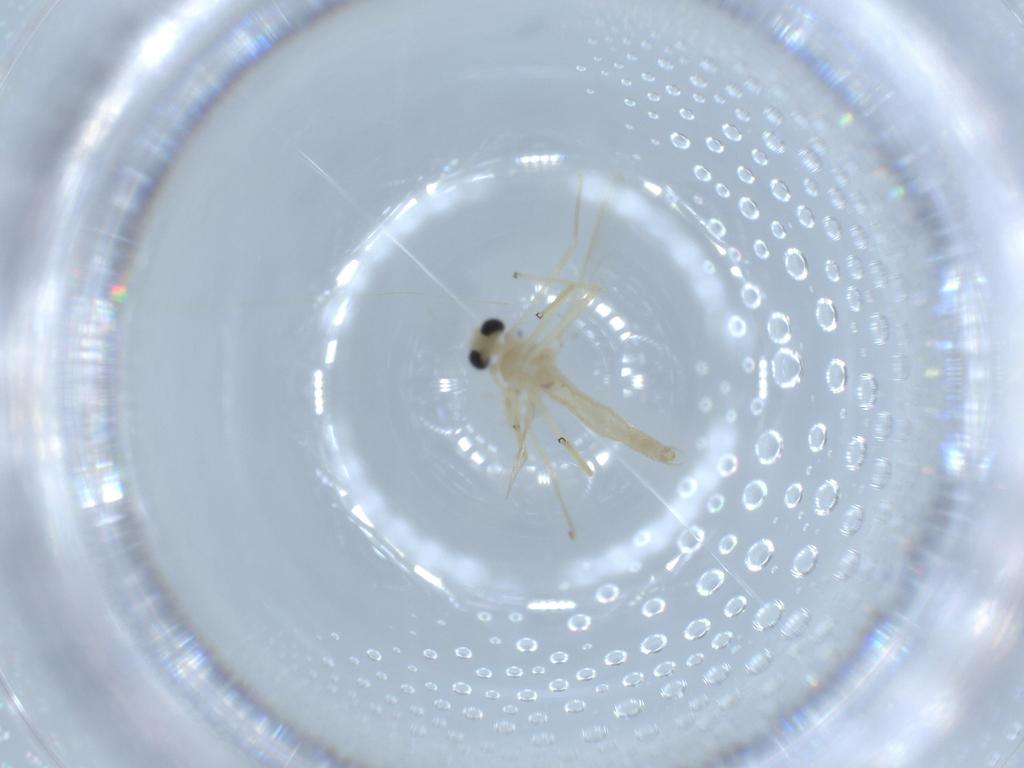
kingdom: Animalia
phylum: Arthropoda
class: Insecta
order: Diptera
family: Chironomidae
